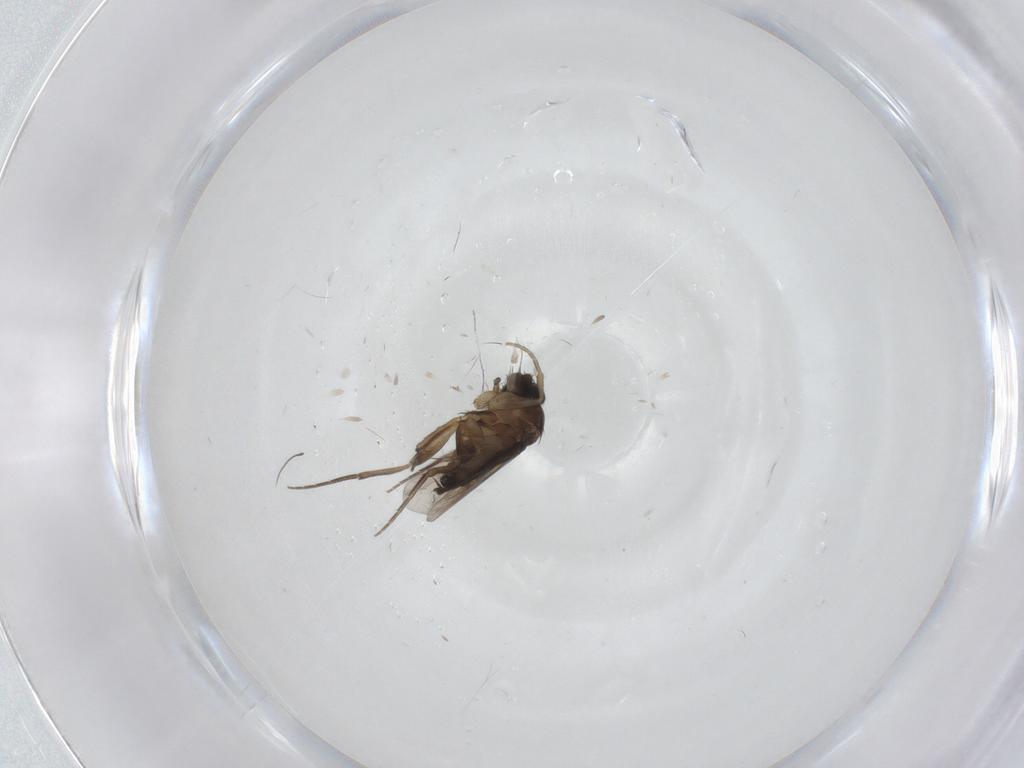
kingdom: Animalia
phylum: Arthropoda
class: Insecta
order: Diptera
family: Phoridae
